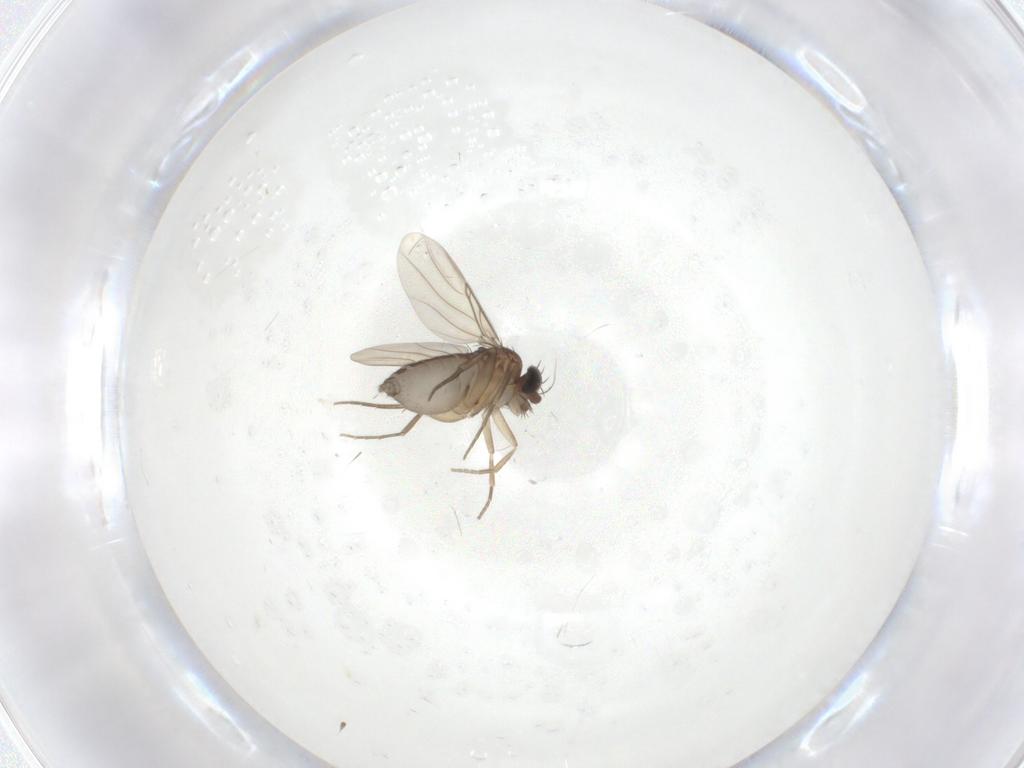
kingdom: Animalia
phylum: Arthropoda
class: Insecta
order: Diptera
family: Phoridae
